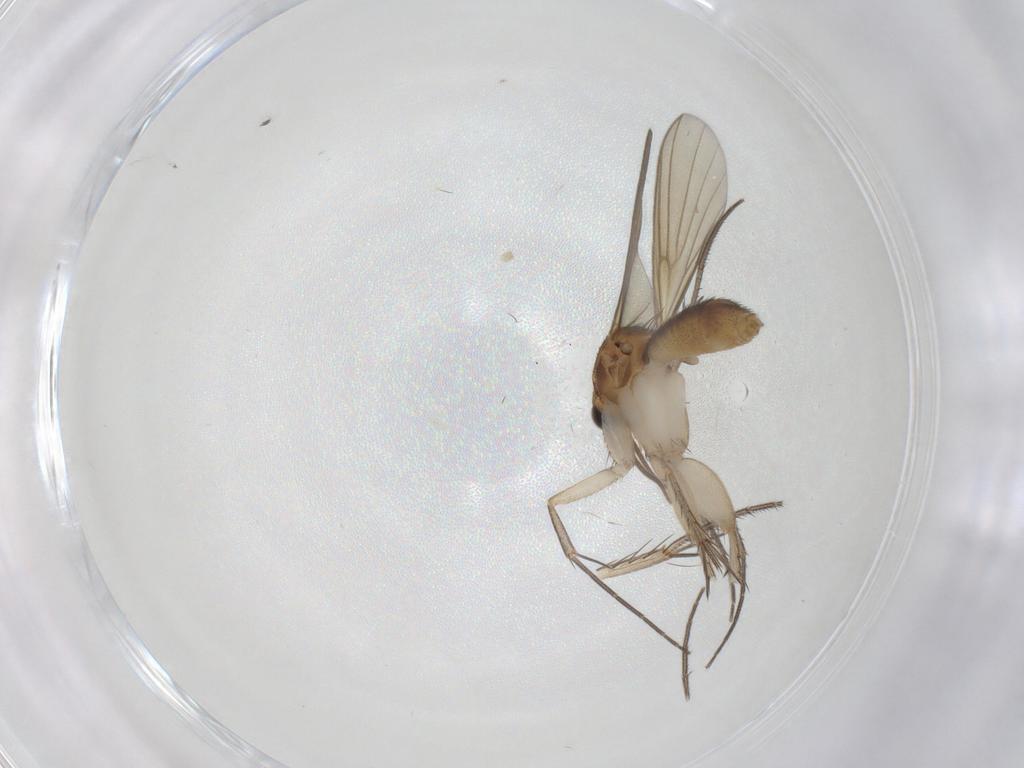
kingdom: Animalia
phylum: Arthropoda
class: Insecta
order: Diptera
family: Mycetophilidae
